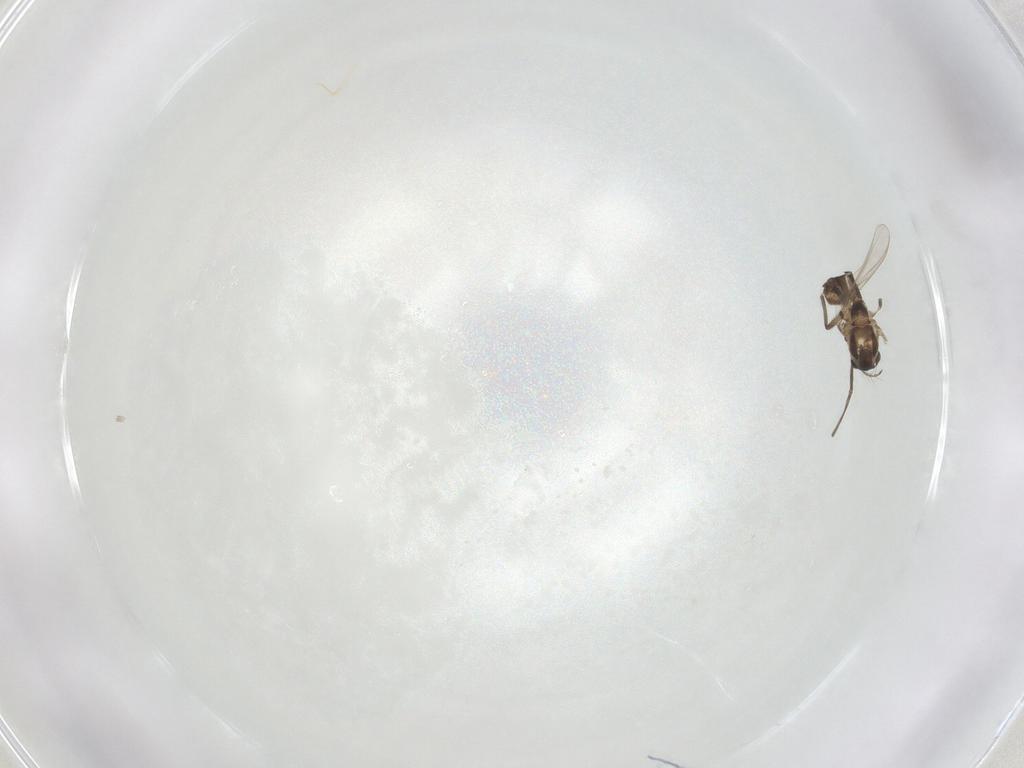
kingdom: Animalia
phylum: Arthropoda
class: Insecta
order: Diptera
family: Chironomidae
